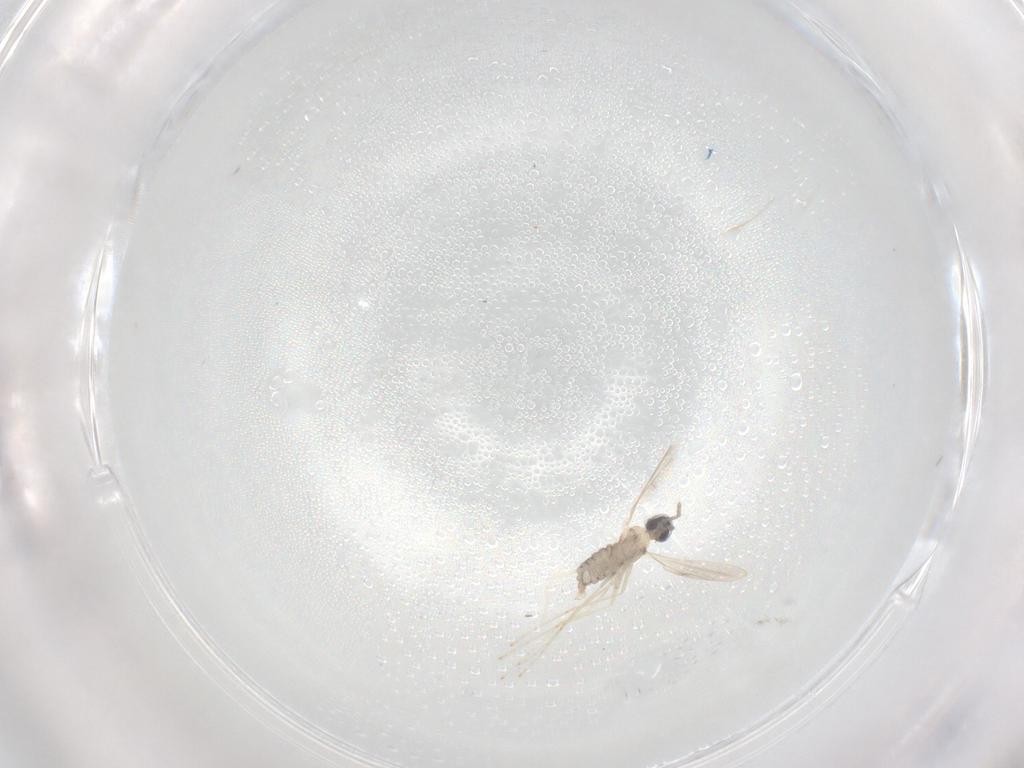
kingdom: Animalia
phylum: Arthropoda
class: Insecta
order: Diptera
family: Cecidomyiidae
